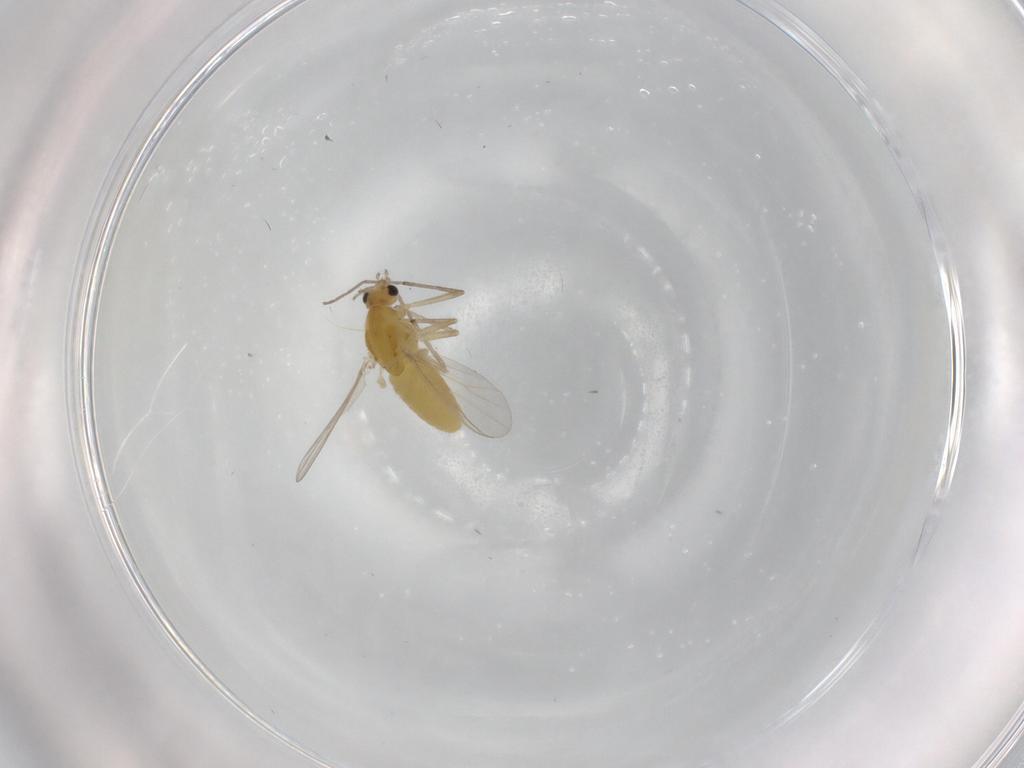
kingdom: Animalia
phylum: Arthropoda
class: Insecta
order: Diptera
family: Chironomidae
